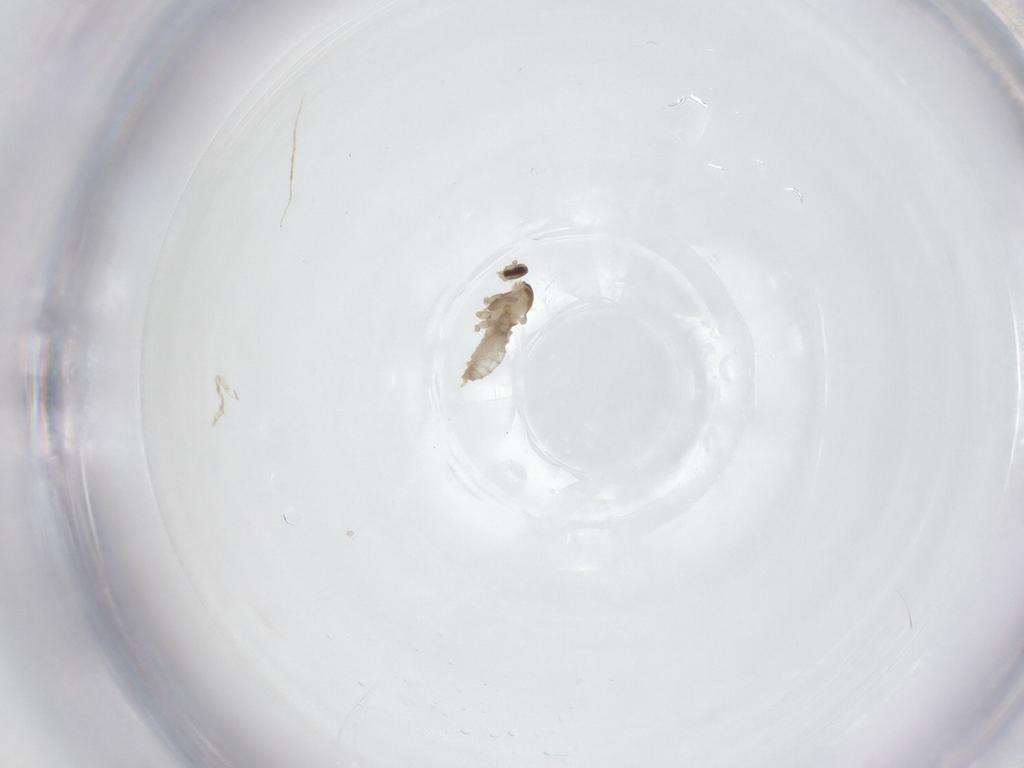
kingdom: Animalia
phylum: Arthropoda
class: Insecta
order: Diptera
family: Cecidomyiidae
